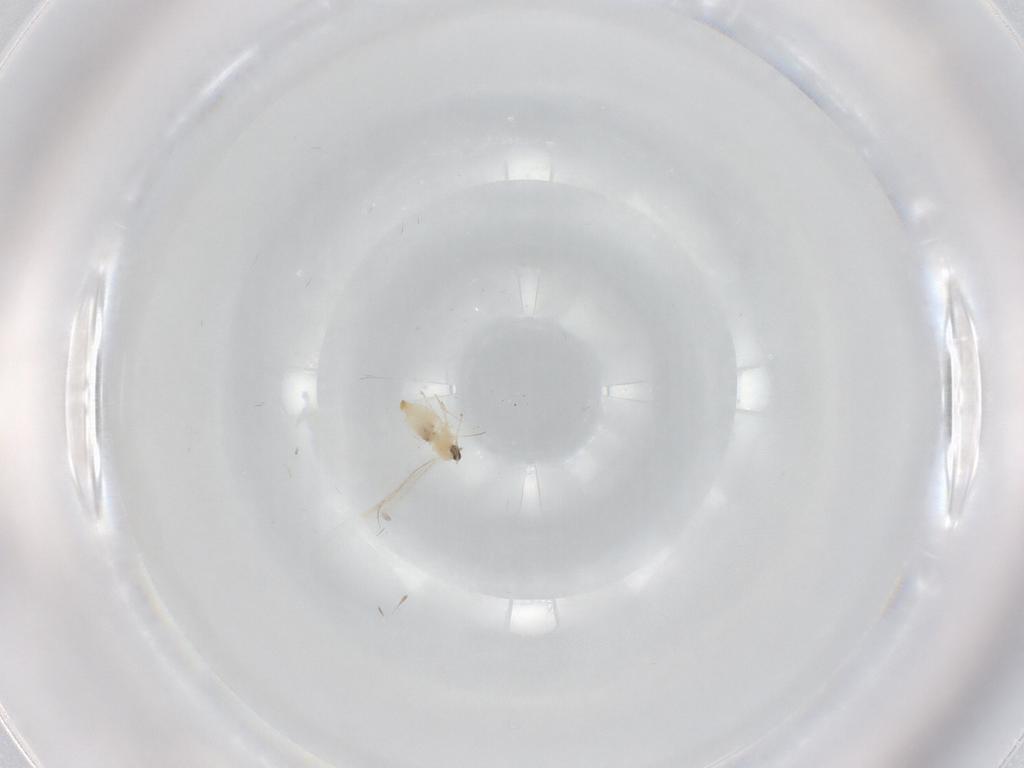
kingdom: Animalia
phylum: Arthropoda
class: Insecta
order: Diptera
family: Cecidomyiidae
